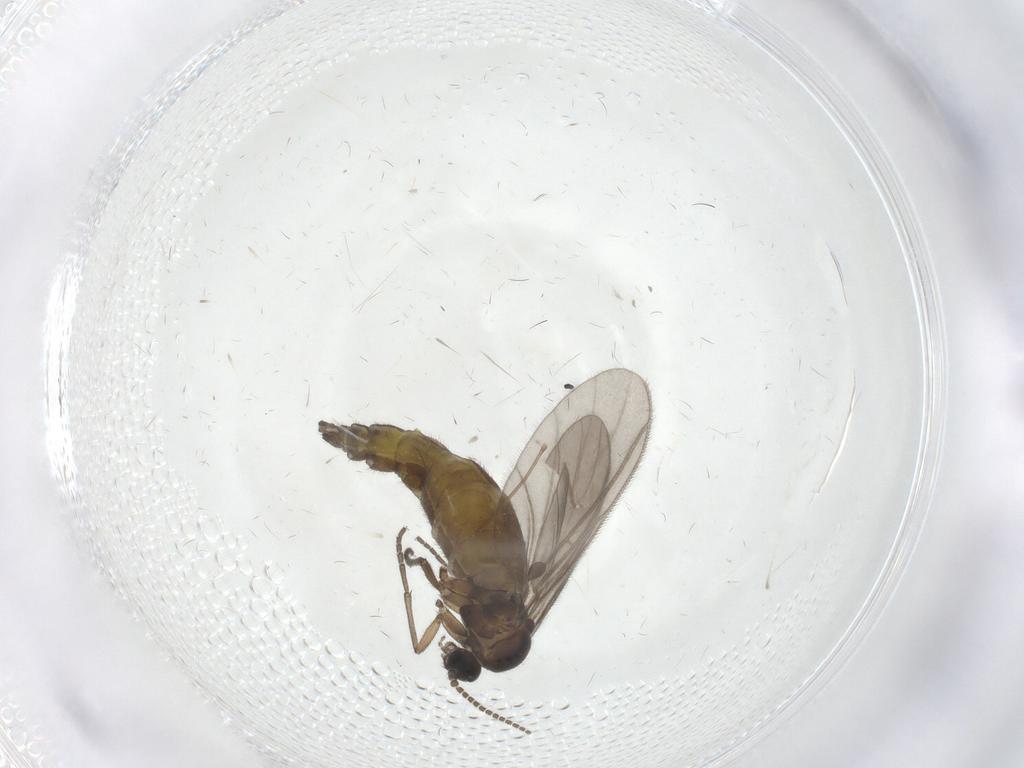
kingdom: Animalia
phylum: Arthropoda
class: Insecta
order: Diptera
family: Sciaridae
